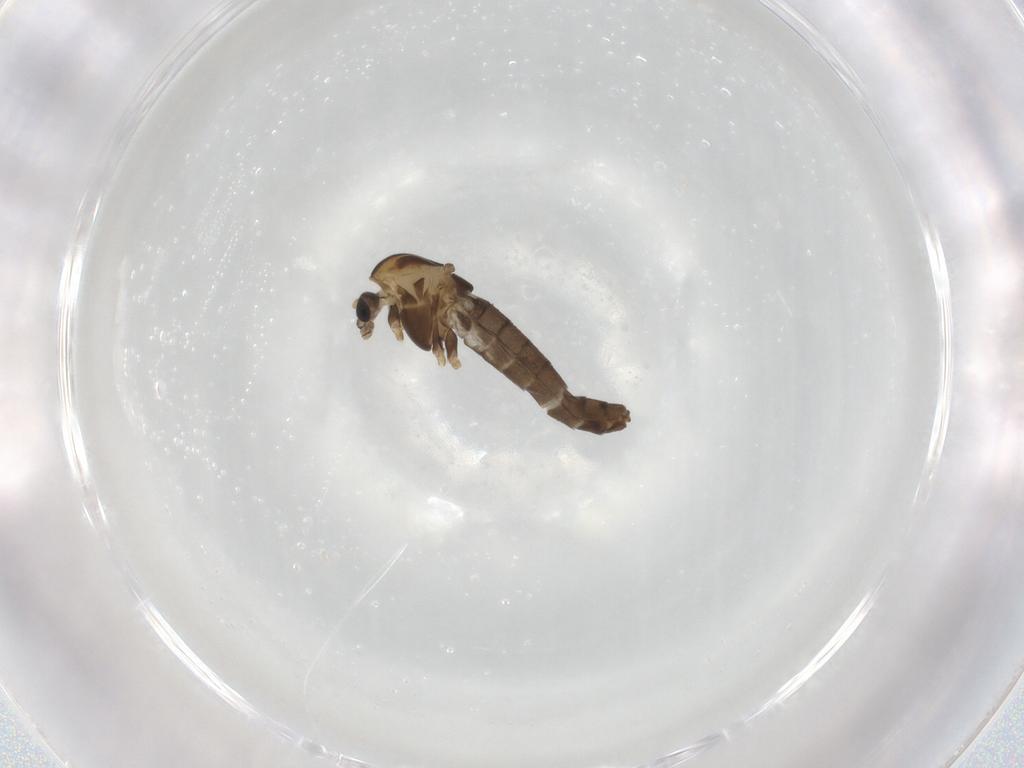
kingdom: Animalia
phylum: Arthropoda
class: Insecta
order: Diptera
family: Chironomidae
